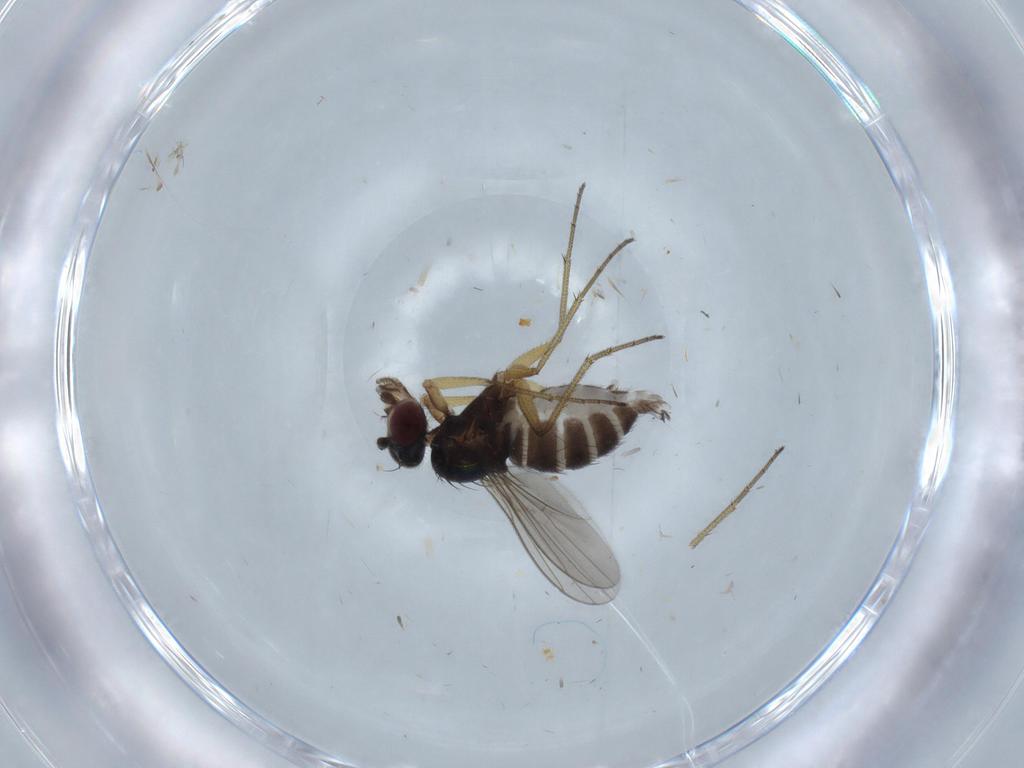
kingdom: Animalia
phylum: Arthropoda
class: Insecta
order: Diptera
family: Dolichopodidae
